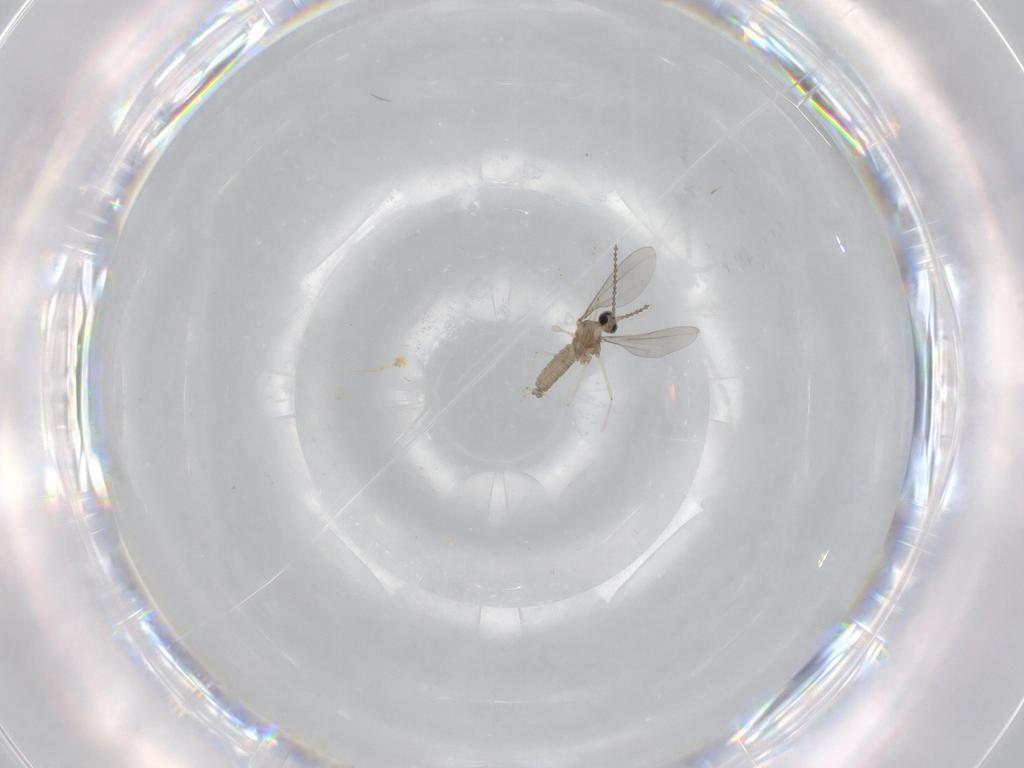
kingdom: Animalia
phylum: Arthropoda
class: Insecta
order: Diptera
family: Cecidomyiidae
